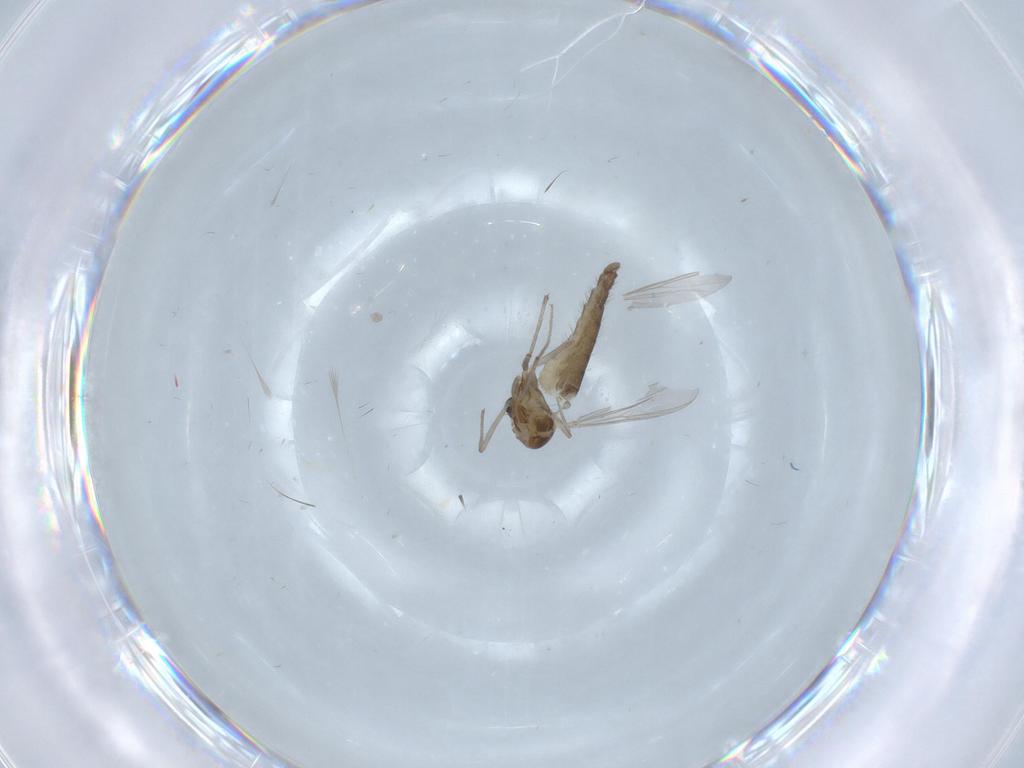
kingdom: Animalia
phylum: Arthropoda
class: Insecta
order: Diptera
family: Chironomidae
